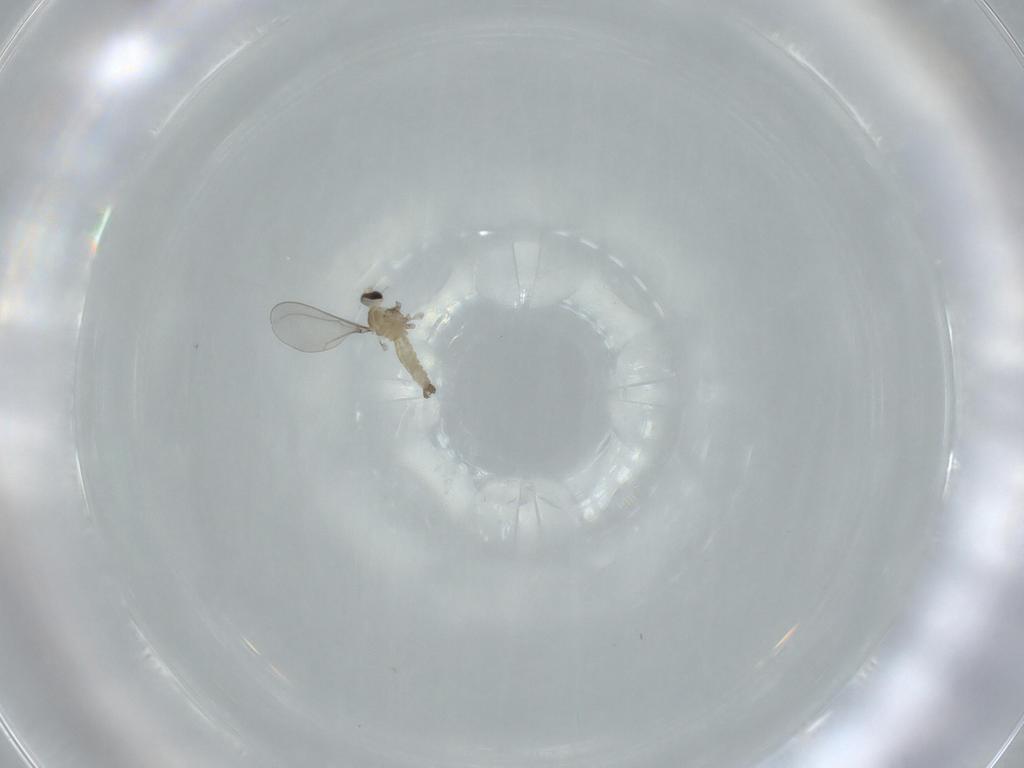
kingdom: Animalia
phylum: Arthropoda
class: Insecta
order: Diptera
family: Cecidomyiidae
